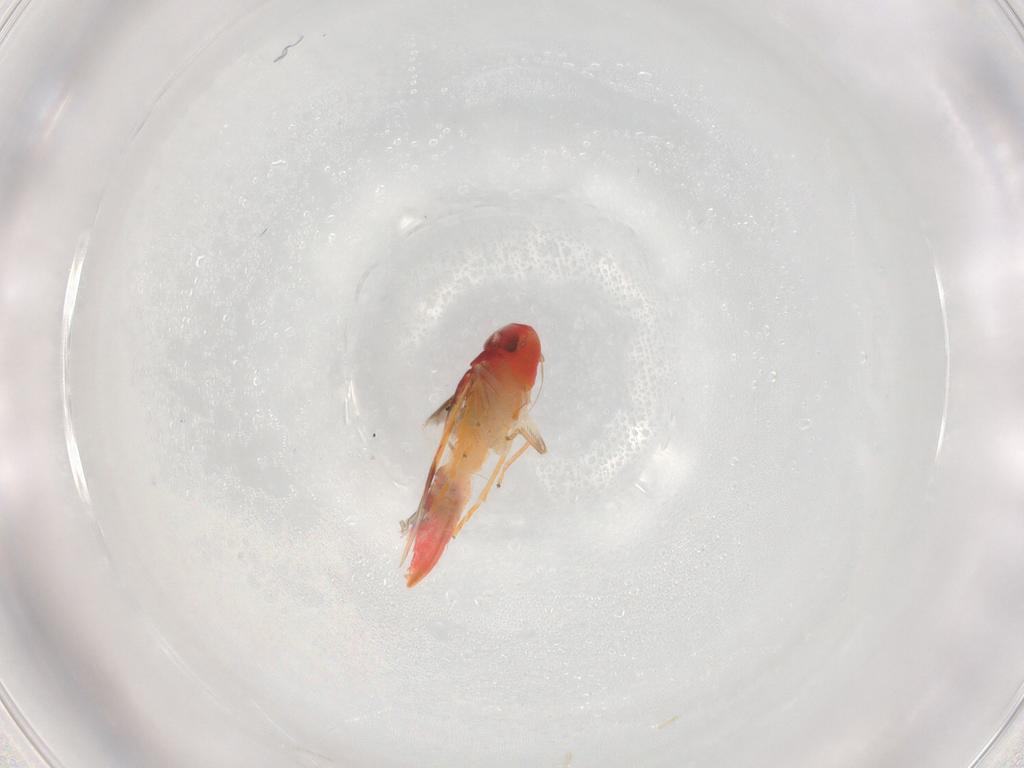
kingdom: Animalia
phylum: Arthropoda
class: Insecta
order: Hemiptera
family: Cicadellidae
